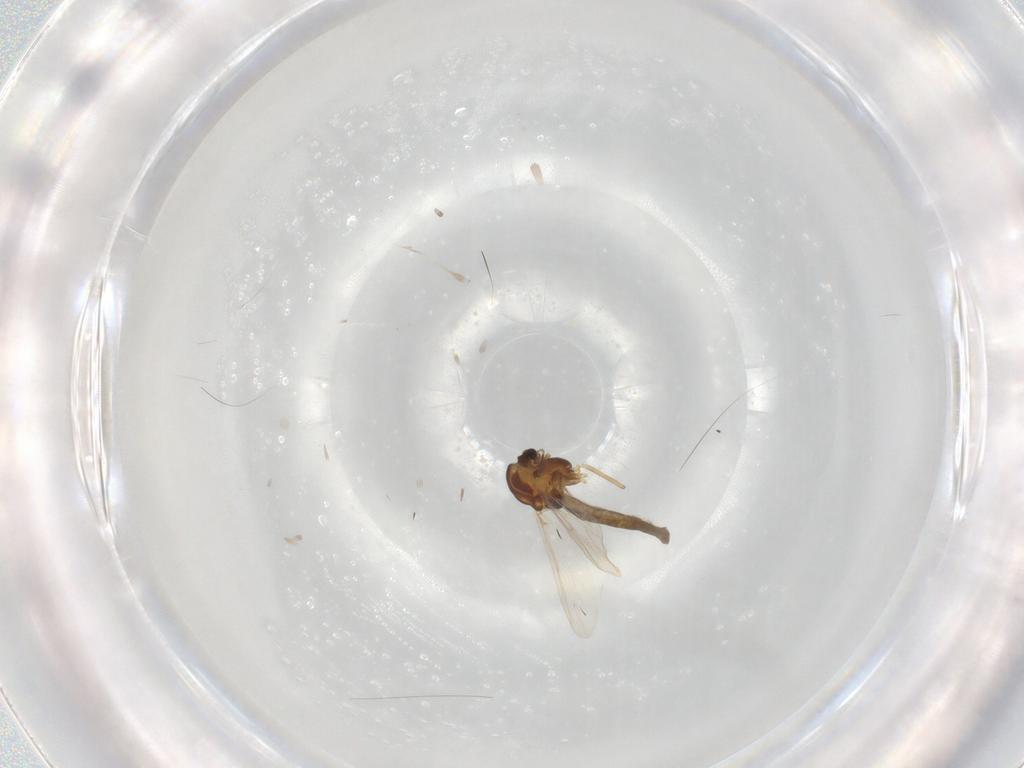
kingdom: Animalia
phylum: Arthropoda
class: Insecta
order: Diptera
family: Chironomidae
